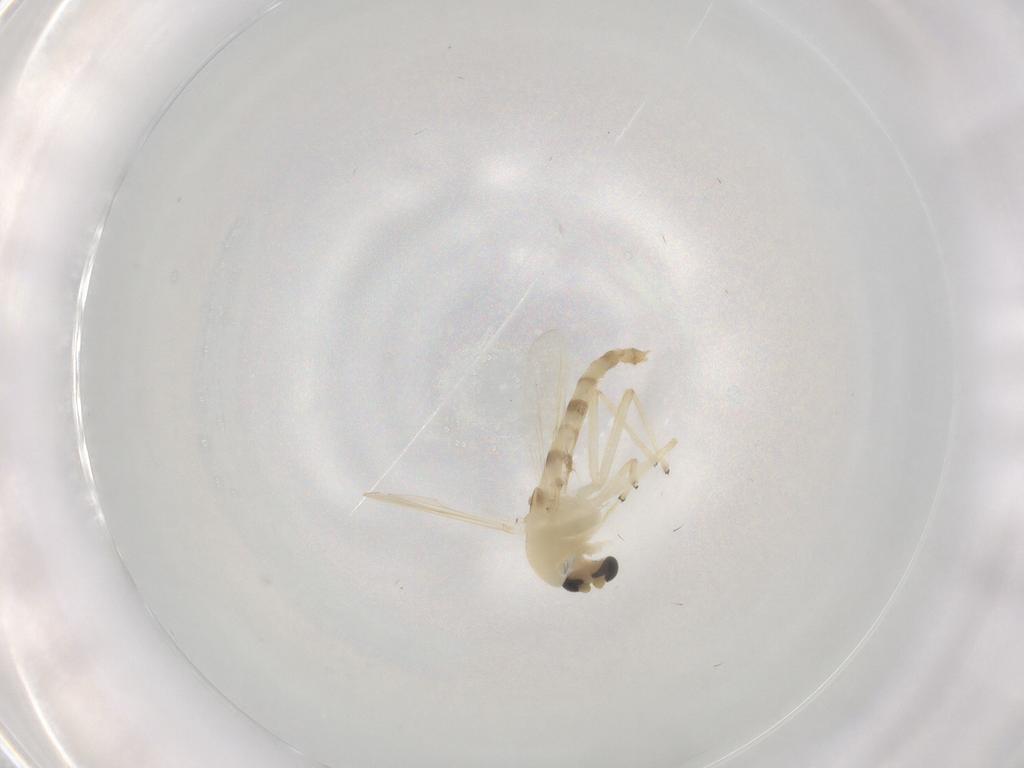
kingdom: Animalia
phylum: Arthropoda
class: Insecta
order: Diptera
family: Chironomidae
